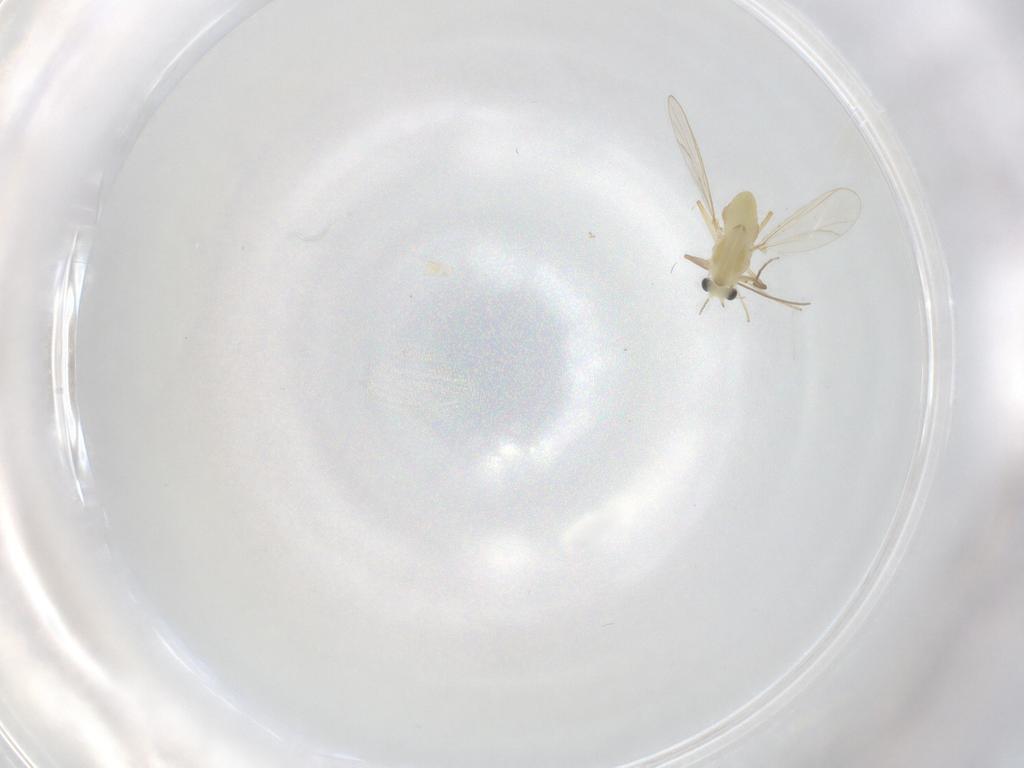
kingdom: Animalia
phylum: Arthropoda
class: Insecta
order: Diptera
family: Chironomidae
